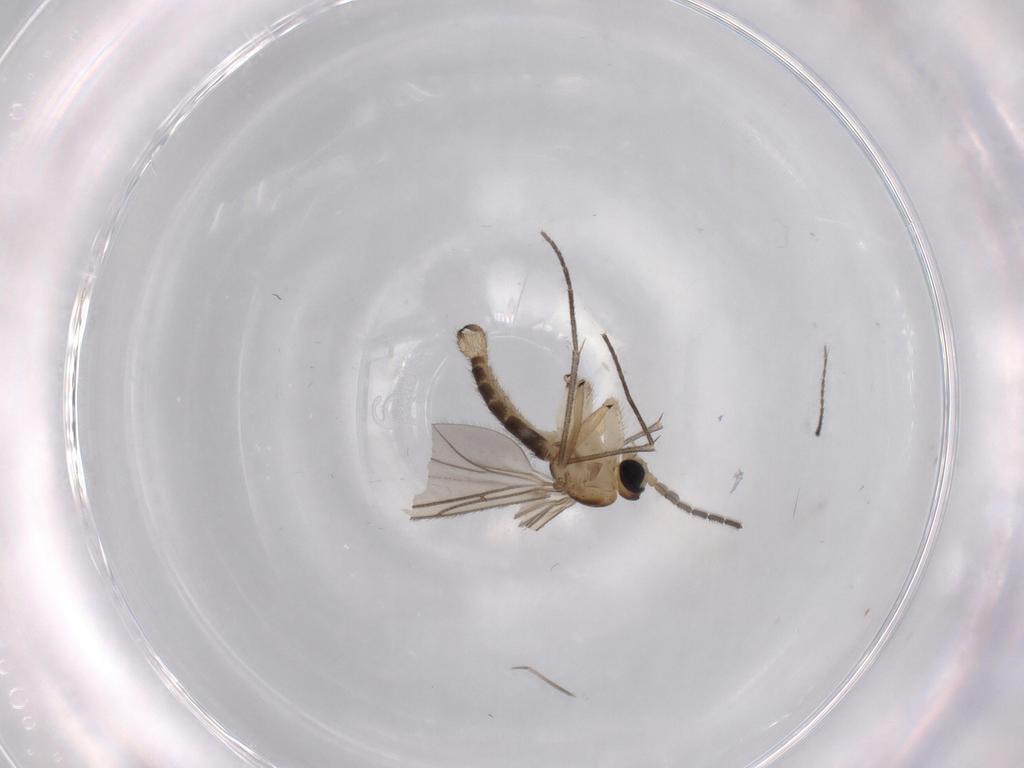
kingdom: Animalia
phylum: Arthropoda
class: Insecta
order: Diptera
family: Sciaridae
